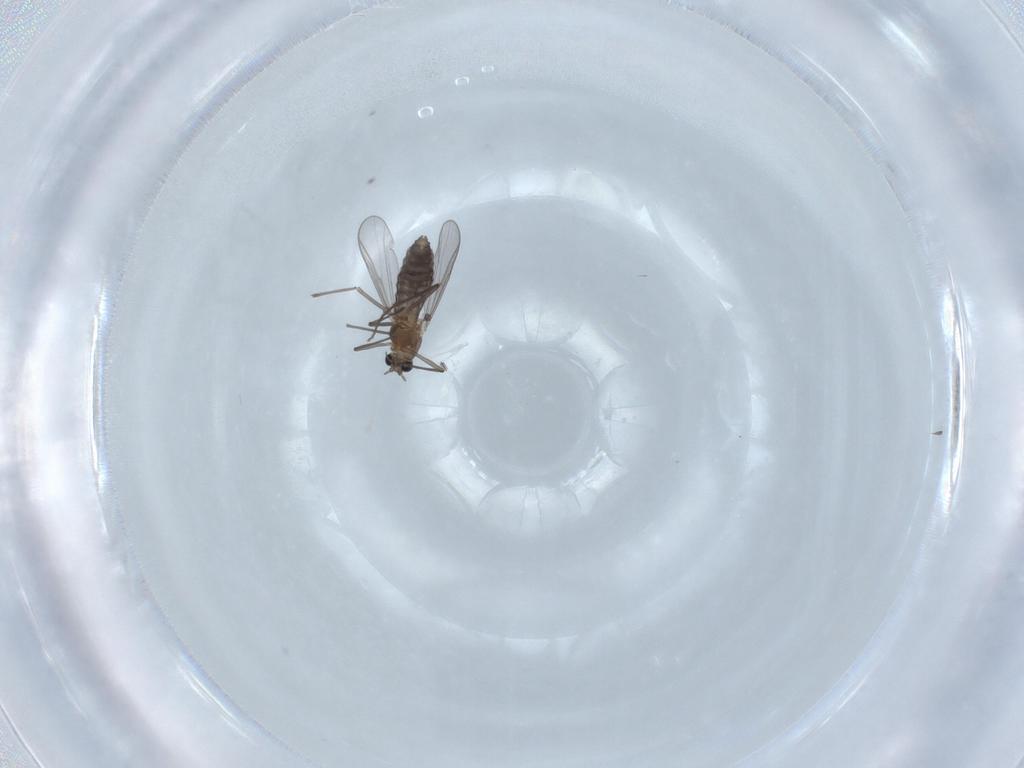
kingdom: Animalia
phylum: Arthropoda
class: Insecta
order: Diptera
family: Chironomidae
